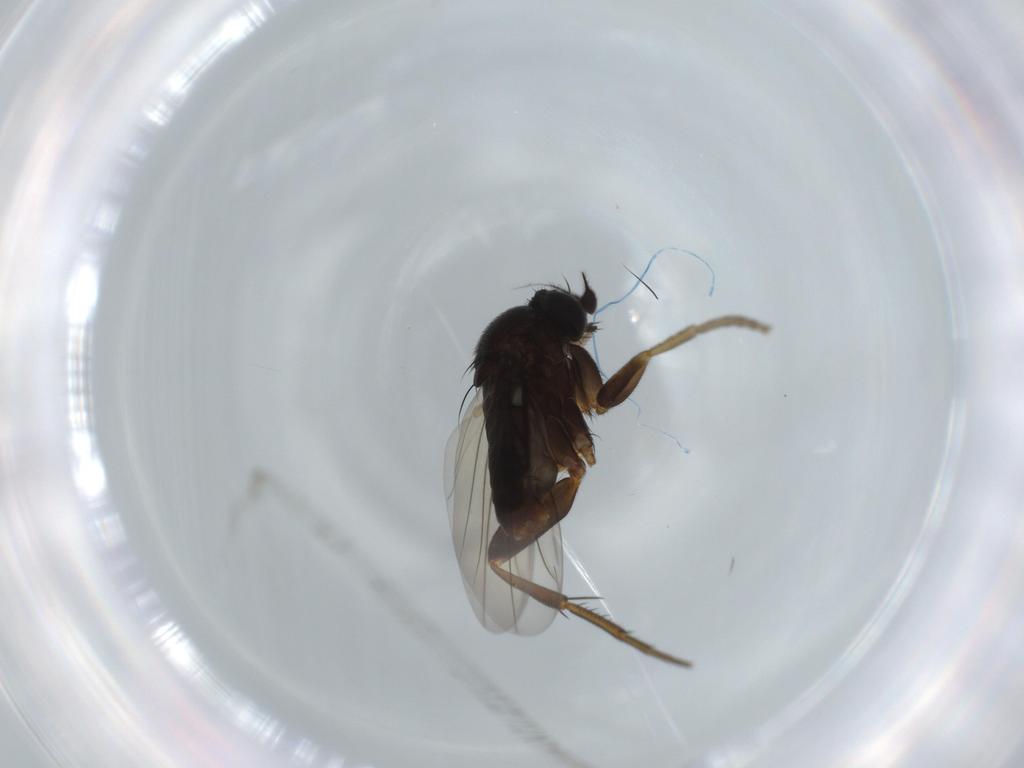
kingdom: Animalia
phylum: Arthropoda
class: Insecta
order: Diptera
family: Phoridae
